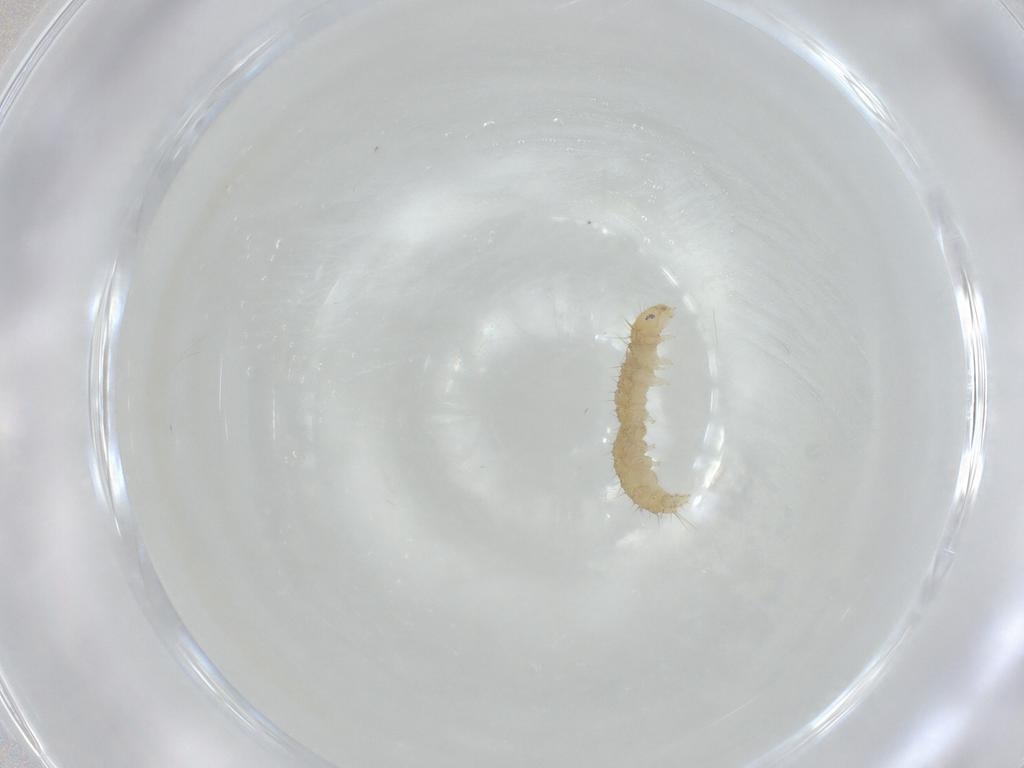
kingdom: Animalia
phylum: Arthropoda
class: Insecta
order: Lepidoptera
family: Gelechiidae
